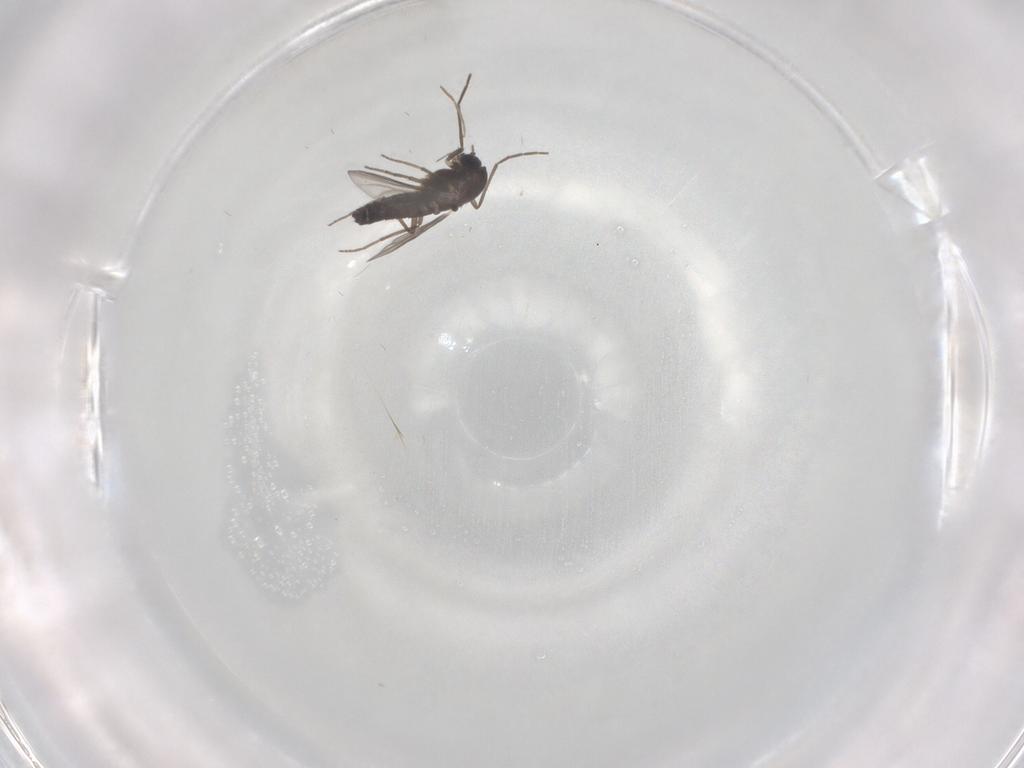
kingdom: Animalia
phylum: Arthropoda
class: Insecta
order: Diptera
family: Chironomidae
